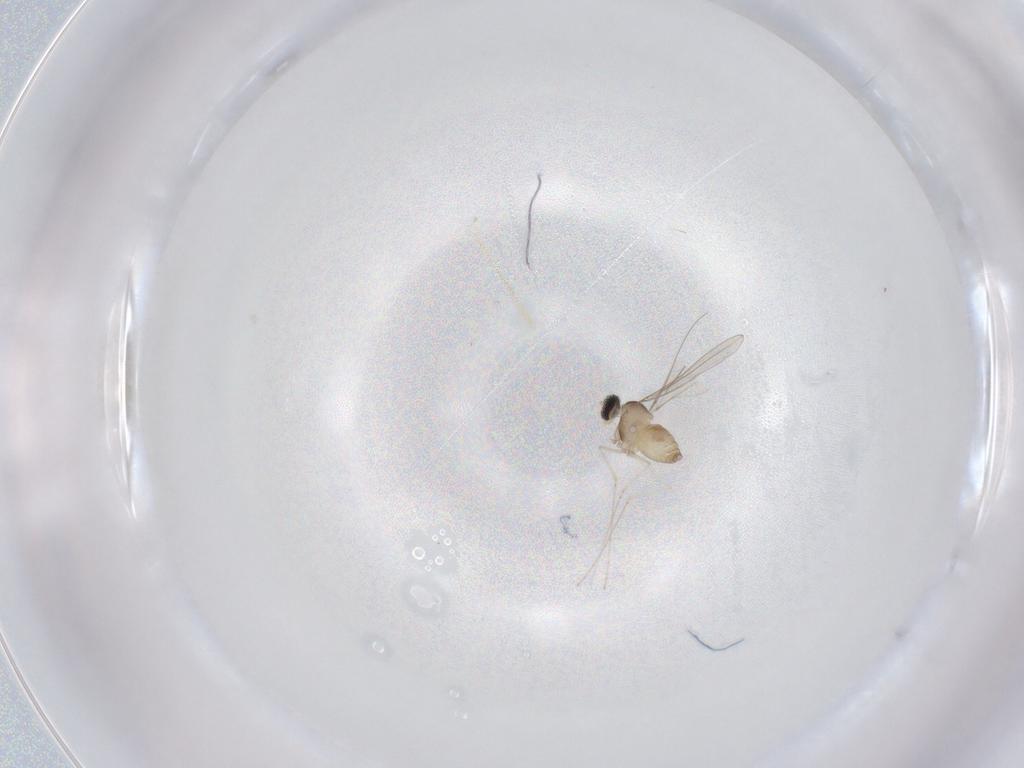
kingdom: Animalia
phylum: Arthropoda
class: Insecta
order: Diptera
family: Cecidomyiidae
